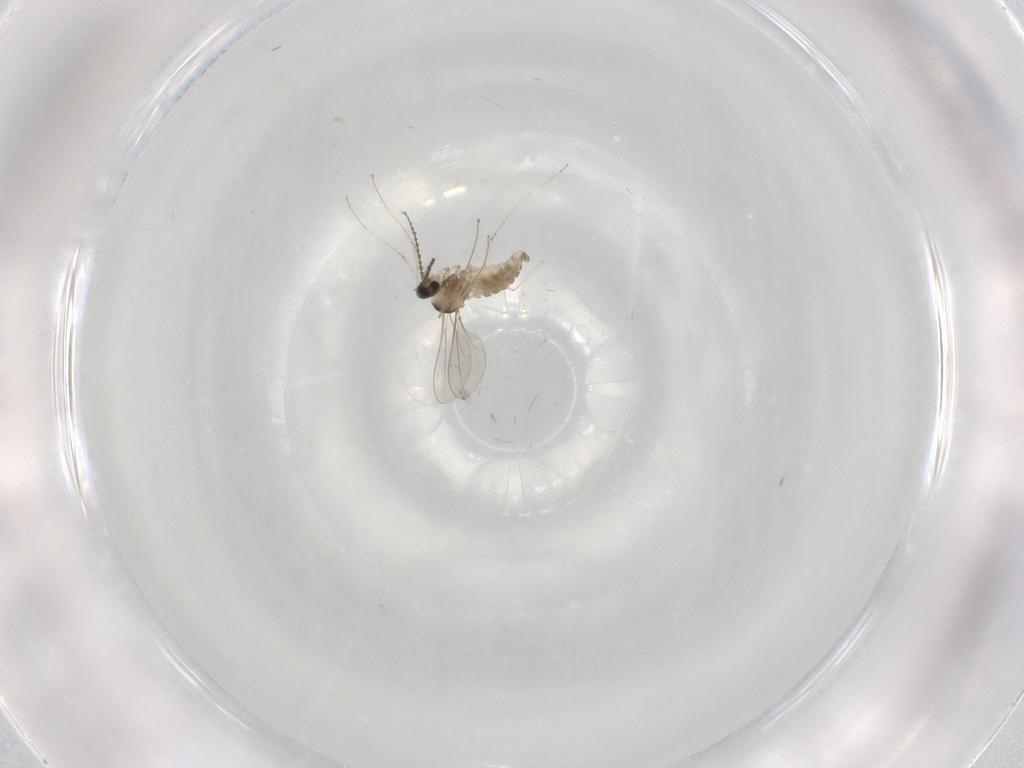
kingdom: Animalia
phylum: Arthropoda
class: Insecta
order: Diptera
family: Cecidomyiidae
